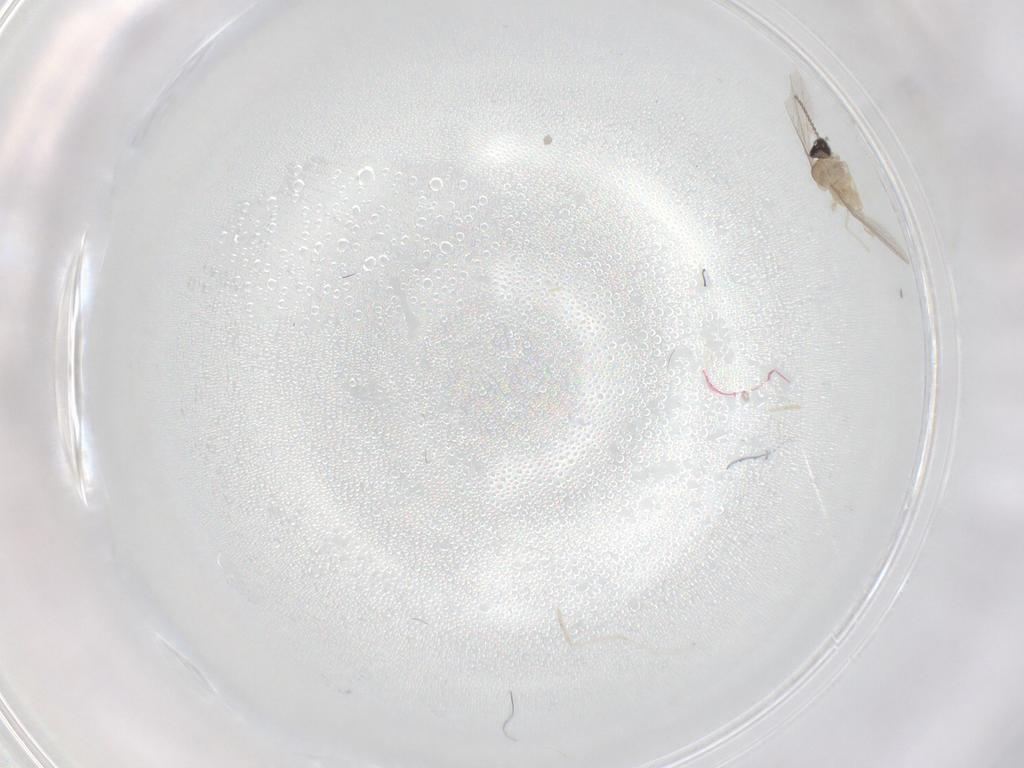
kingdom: Animalia
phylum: Arthropoda
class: Insecta
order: Diptera
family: Cecidomyiidae
